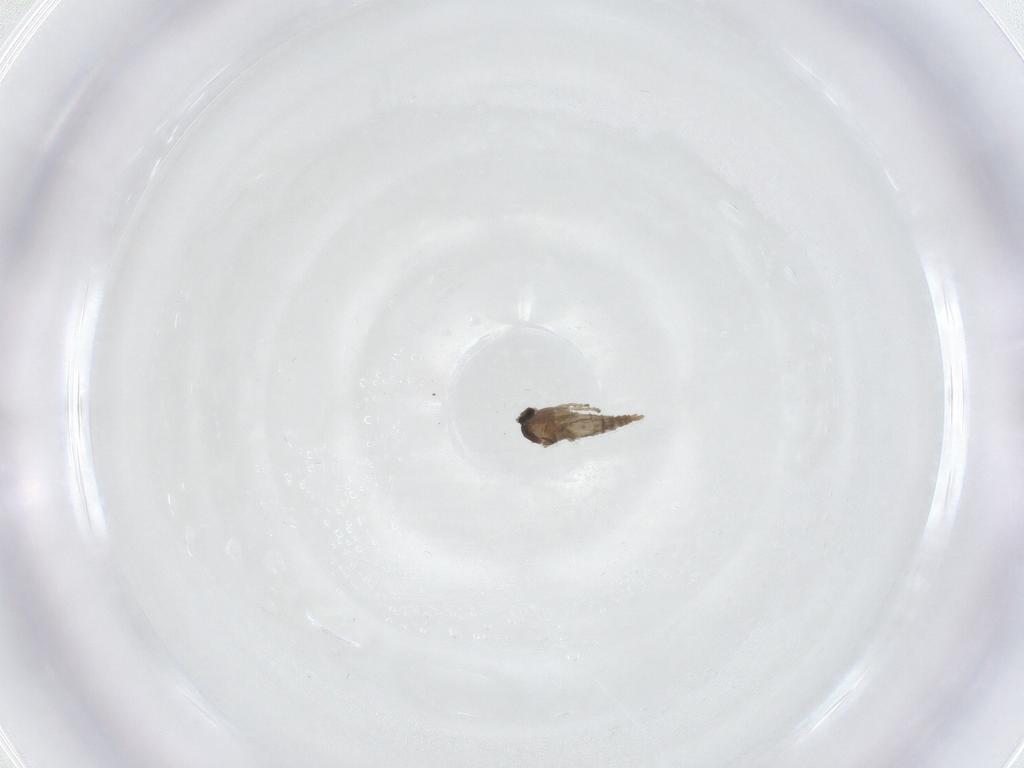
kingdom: Animalia
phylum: Arthropoda
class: Insecta
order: Diptera
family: Cecidomyiidae
